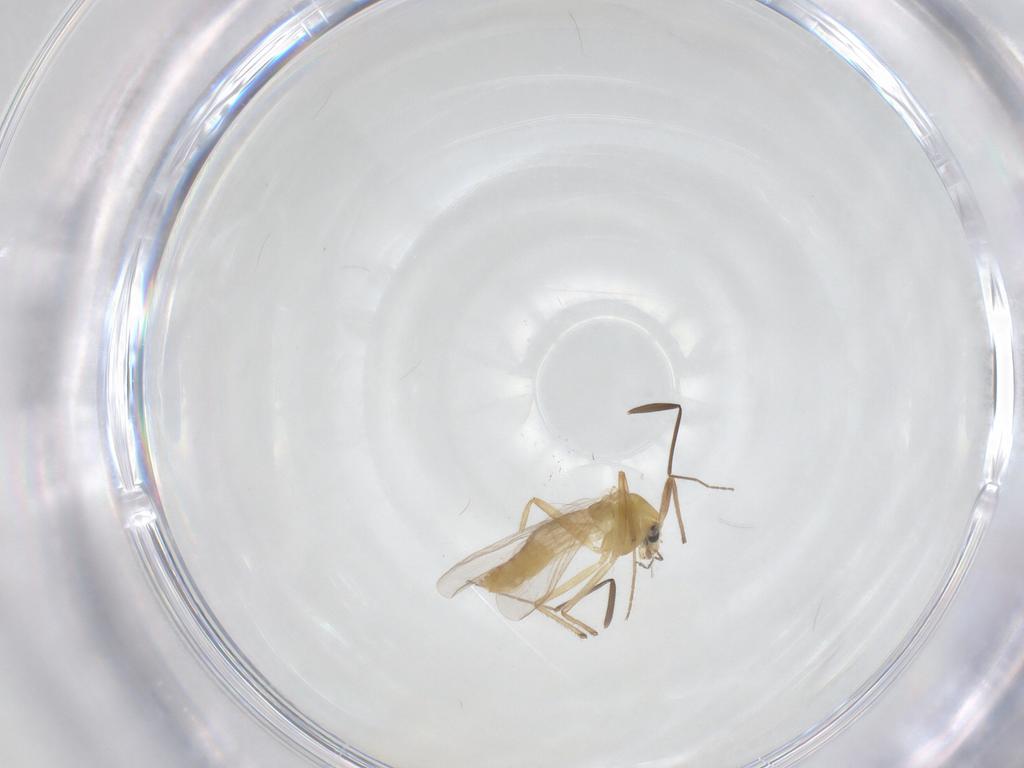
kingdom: Animalia
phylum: Arthropoda
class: Insecta
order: Diptera
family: Chironomidae
